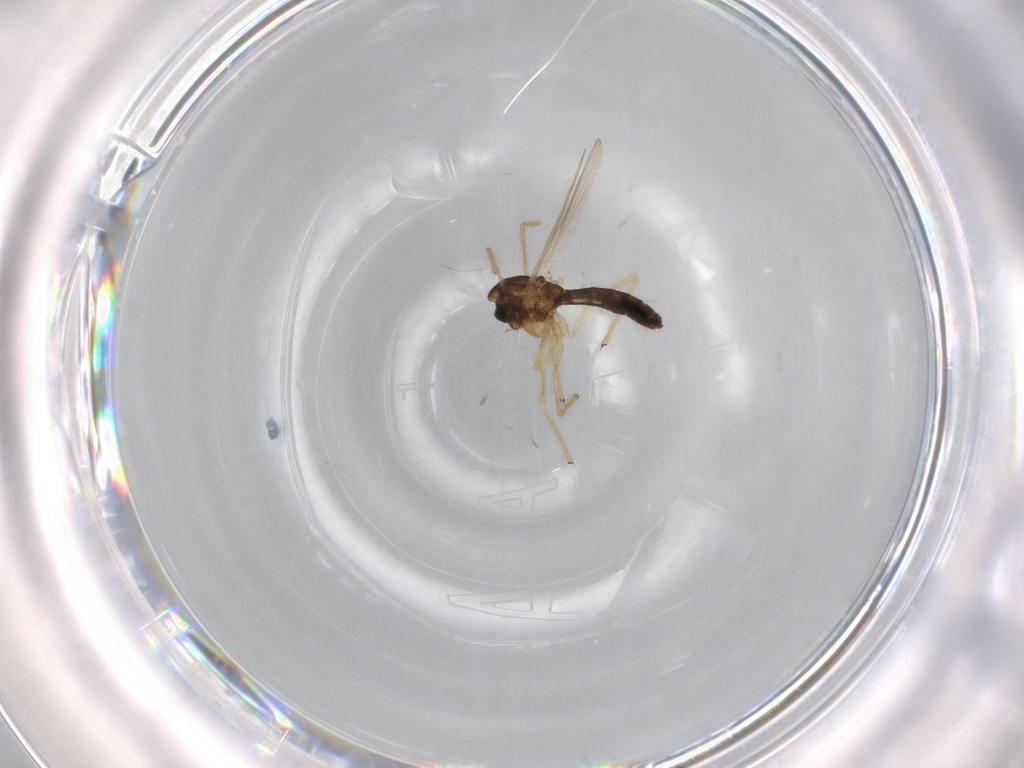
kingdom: Animalia
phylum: Arthropoda
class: Insecta
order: Diptera
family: Chironomidae
